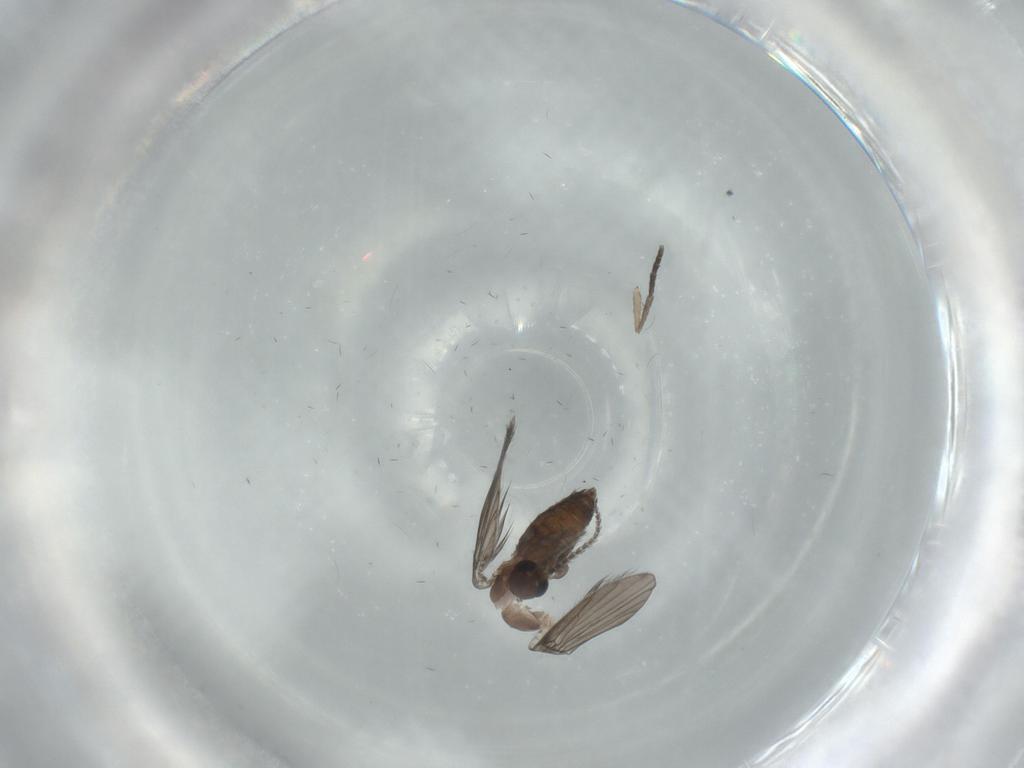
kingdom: Animalia
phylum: Arthropoda
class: Insecta
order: Diptera
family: Psychodidae
